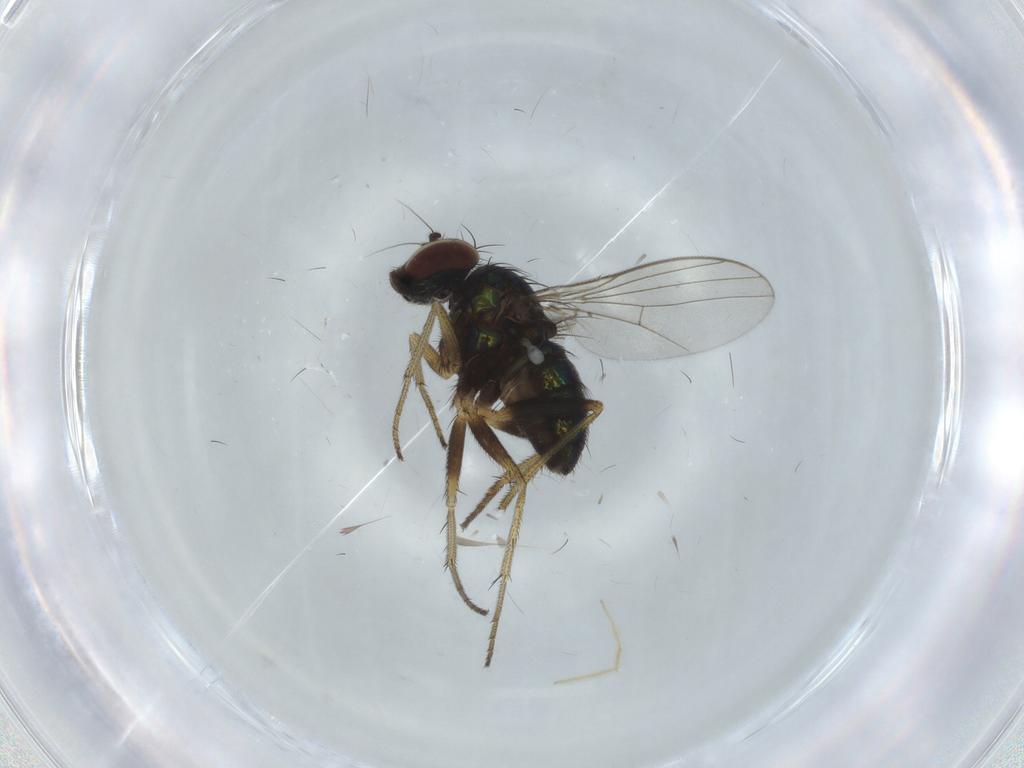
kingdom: Animalia
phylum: Arthropoda
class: Insecta
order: Diptera
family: Dolichopodidae
